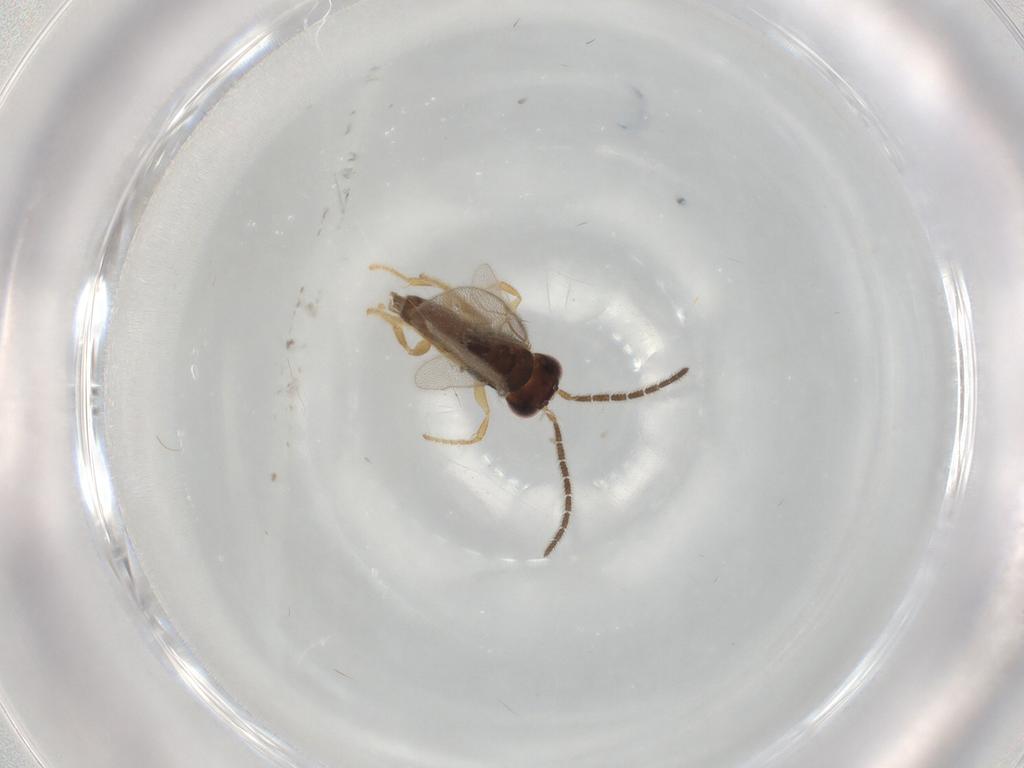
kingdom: Animalia
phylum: Arthropoda
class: Insecta
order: Hymenoptera
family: Dryinidae
